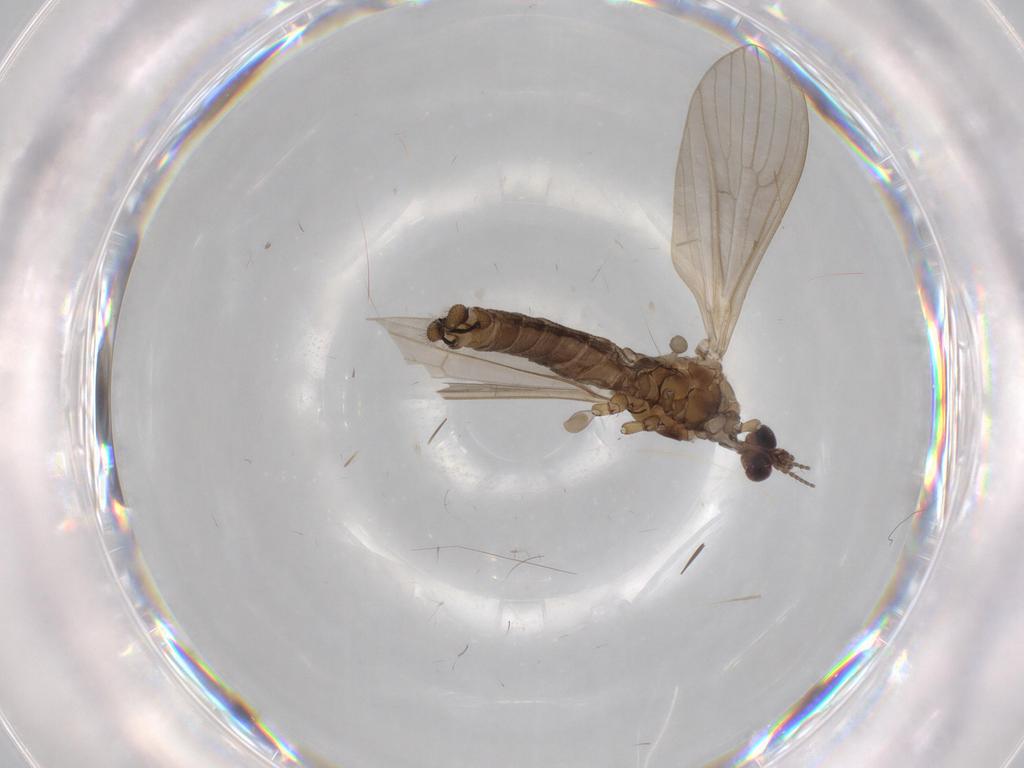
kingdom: Animalia
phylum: Arthropoda
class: Insecta
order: Diptera
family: Limoniidae
